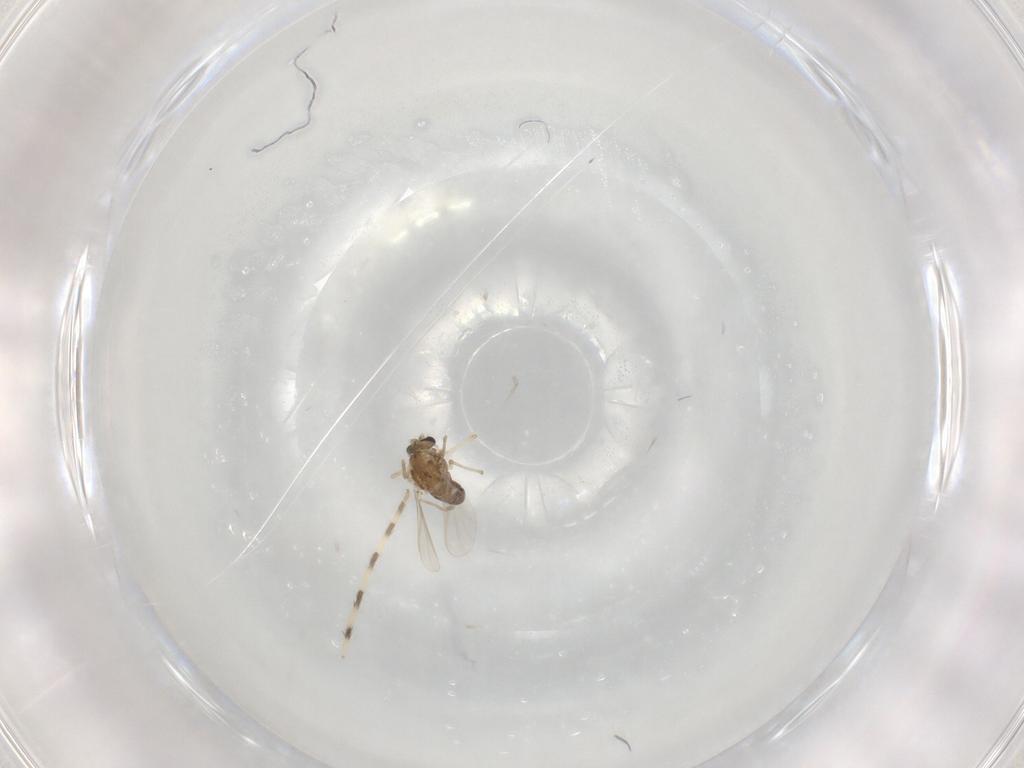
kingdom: Animalia
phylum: Arthropoda
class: Insecta
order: Diptera
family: Chironomidae
